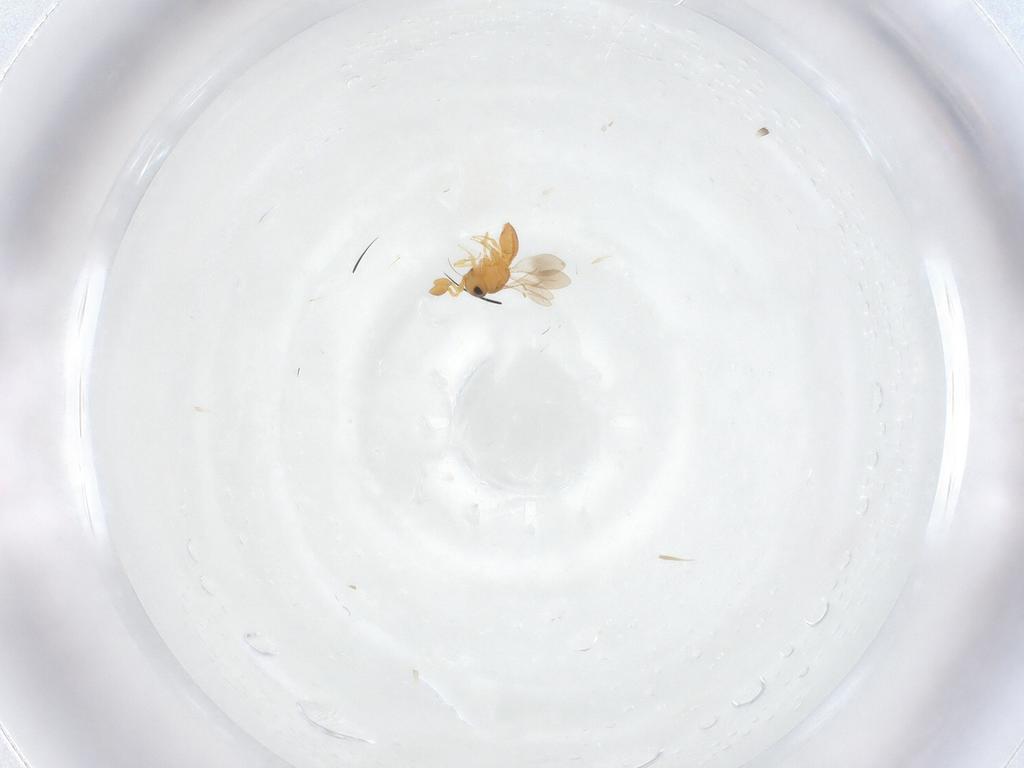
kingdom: Animalia
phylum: Arthropoda
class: Insecta
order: Hymenoptera
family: Scelionidae
